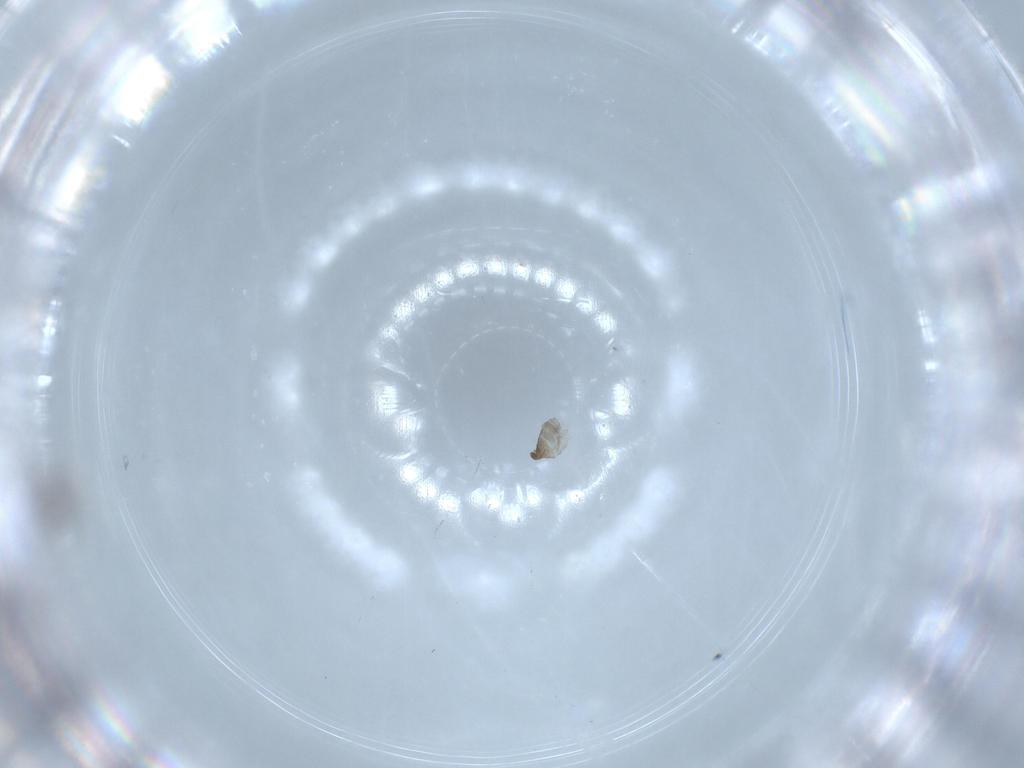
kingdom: Animalia
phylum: Arthropoda
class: Insecta
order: Diptera
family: Cecidomyiidae
